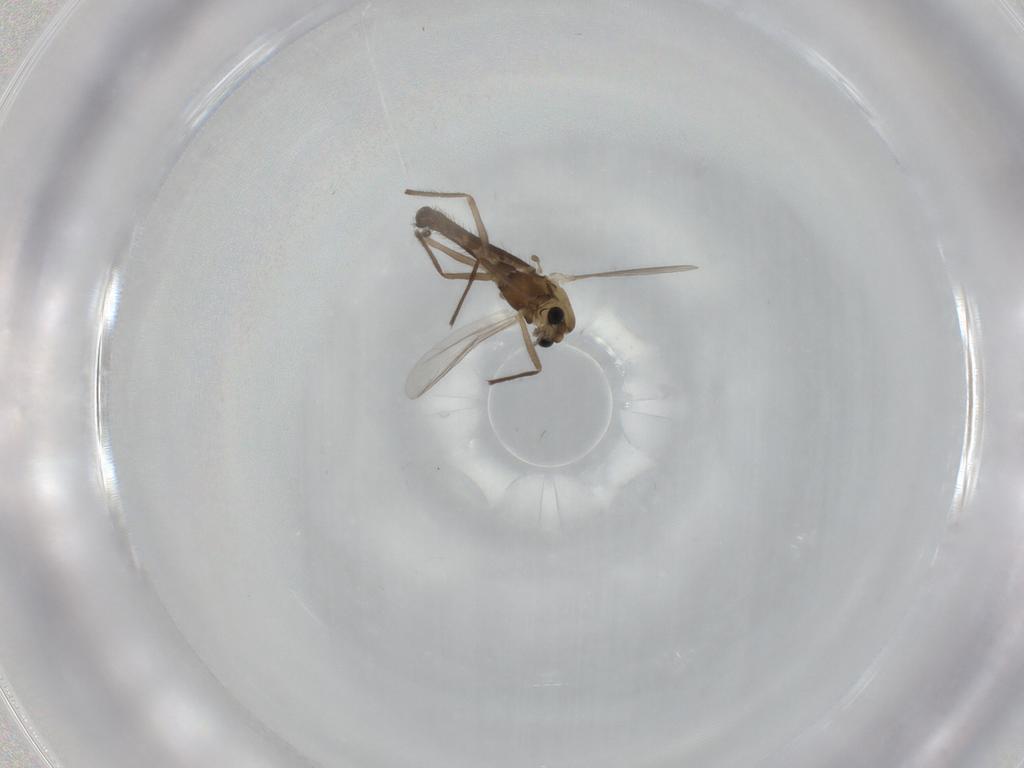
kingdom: Animalia
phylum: Arthropoda
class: Insecta
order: Diptera
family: Chironomidae
